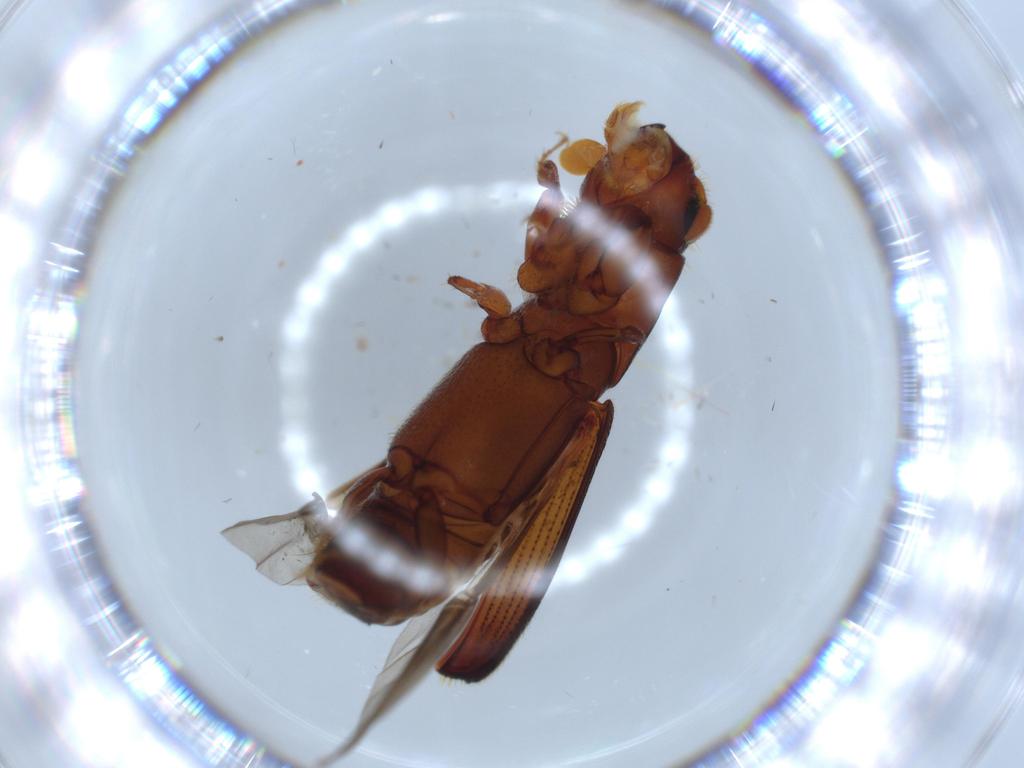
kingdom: Animalia
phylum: Arthropoda
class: Insecta
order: Coleoptera
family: Curculionidae
